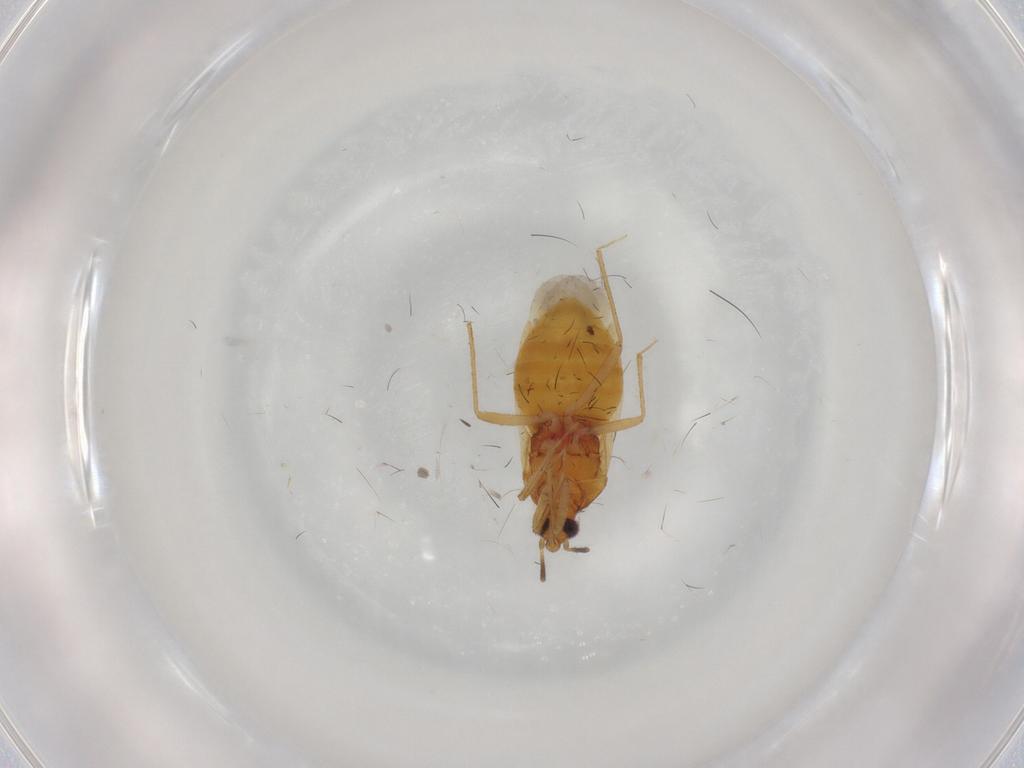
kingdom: Animalia
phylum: Arthropoda
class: Insecta
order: Hemiptera
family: Anthocoridae
